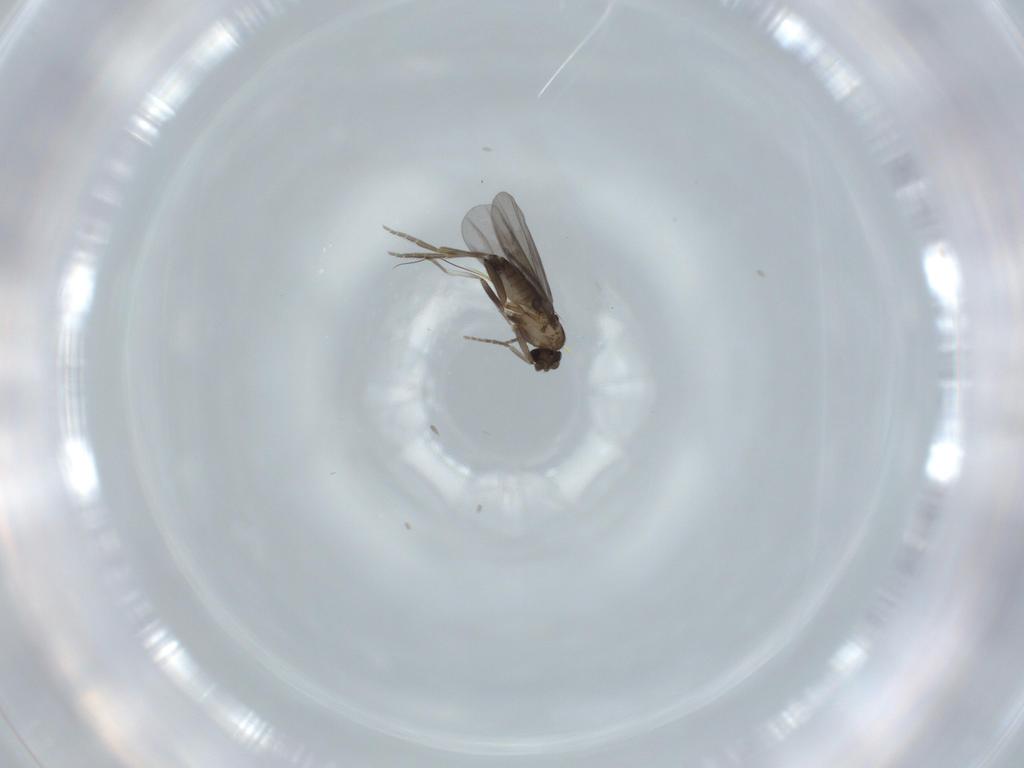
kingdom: Animalia
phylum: Arthropoda
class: Insecta
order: Diptera
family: Phoridae
